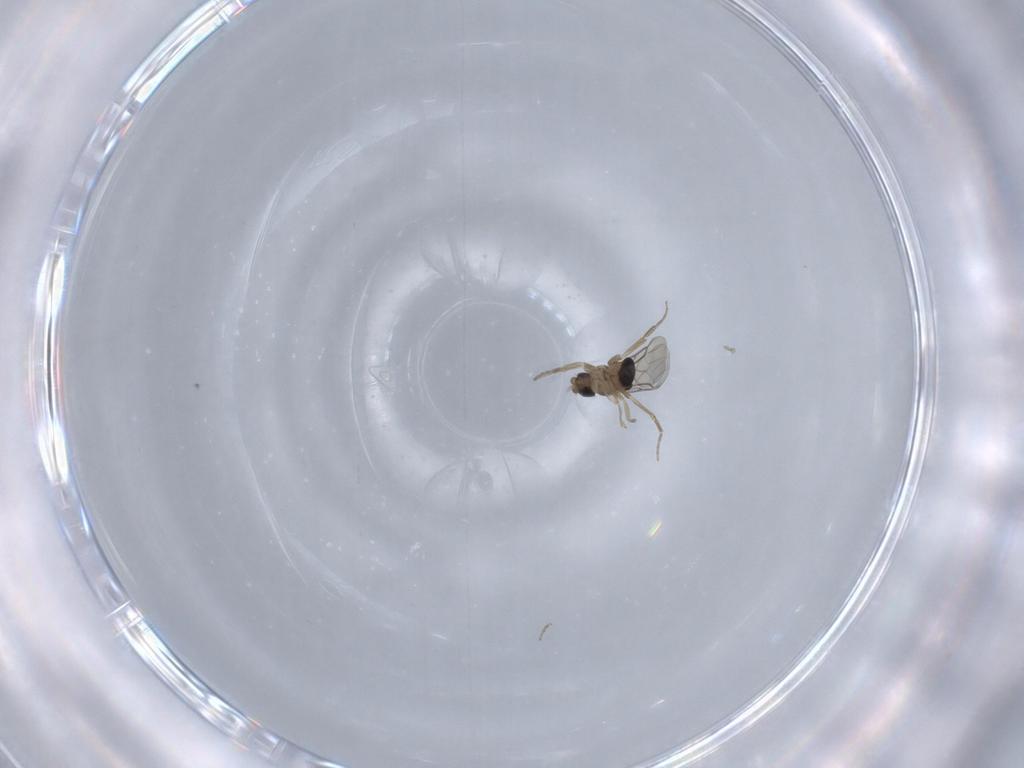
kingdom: Animalia
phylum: Arthropoda
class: Insecta
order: Diptera
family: Phoridae
